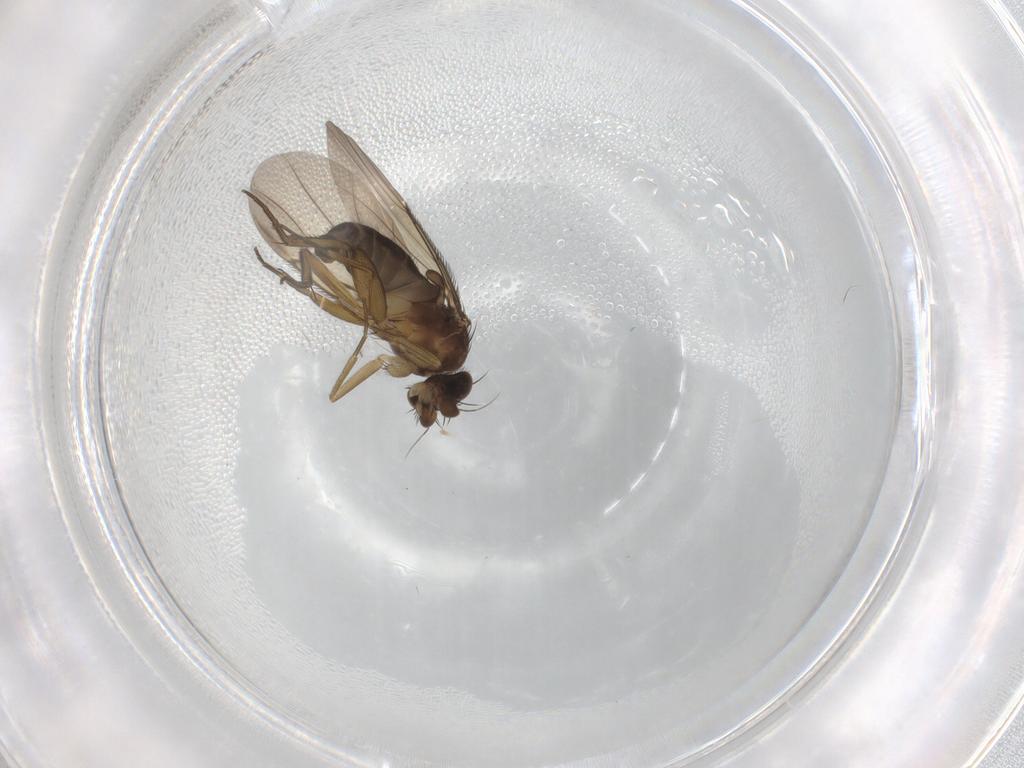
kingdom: Animalia
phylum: Arthropoda
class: Insecta
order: Diptera
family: Phoridae
